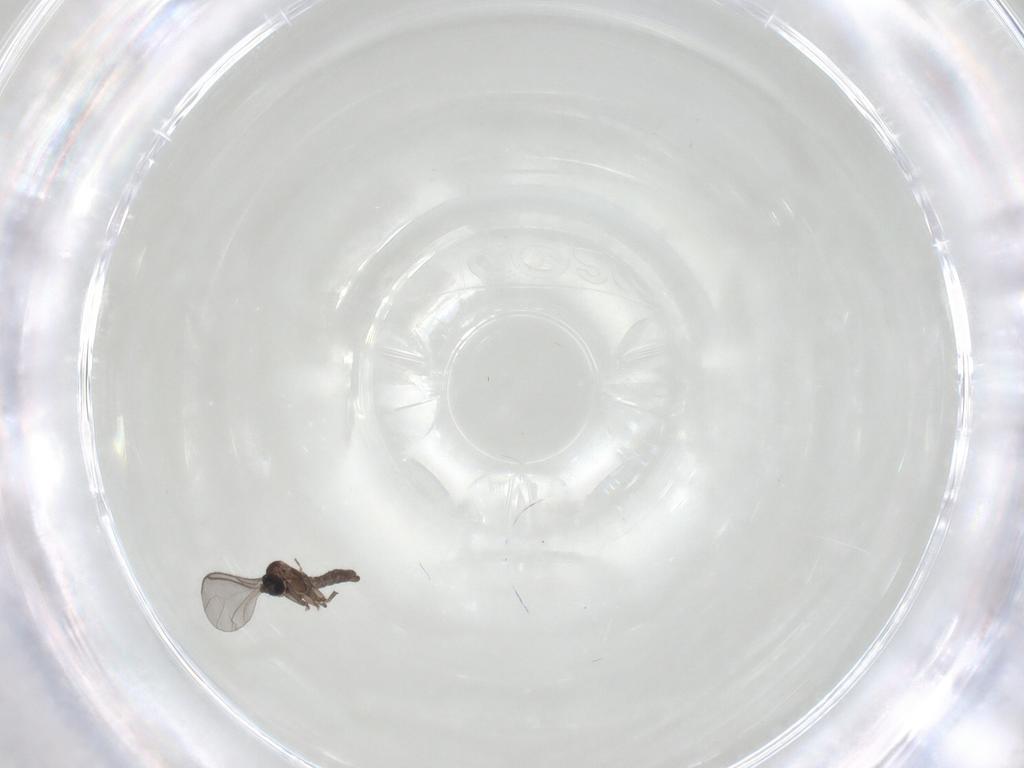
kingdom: Animalia
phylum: Arthropoda
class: Insecta
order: Diptera
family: Sciaridae
